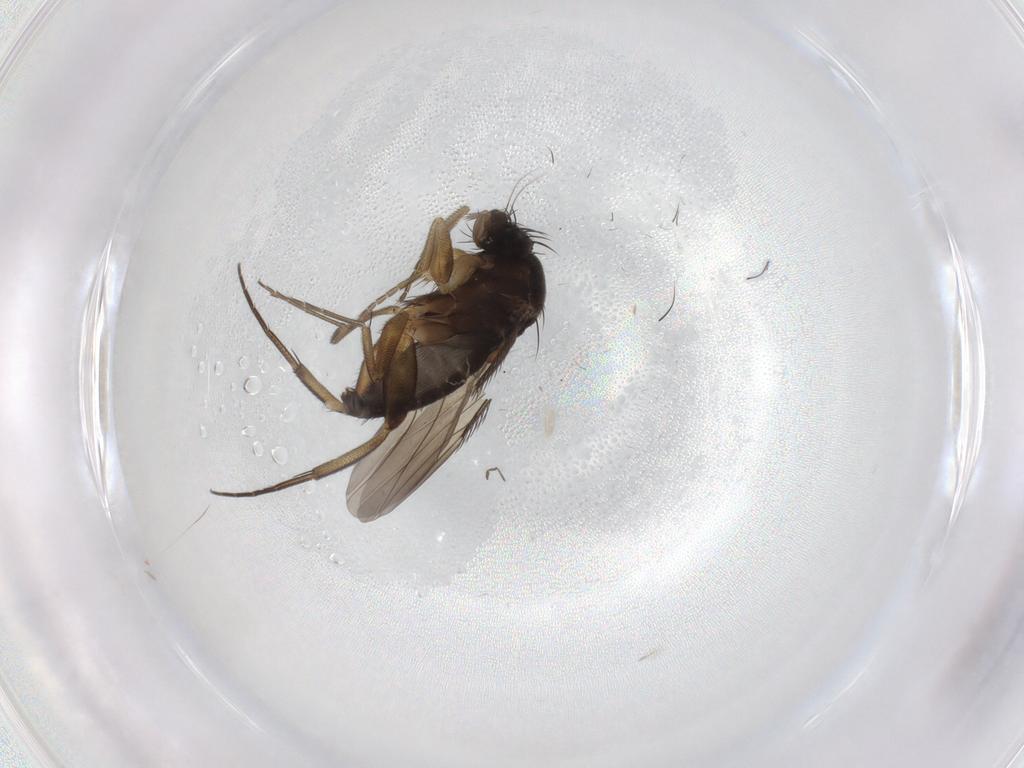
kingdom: Animalia
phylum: Arthropoda
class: Insecta
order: Diptera
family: Phoridae
